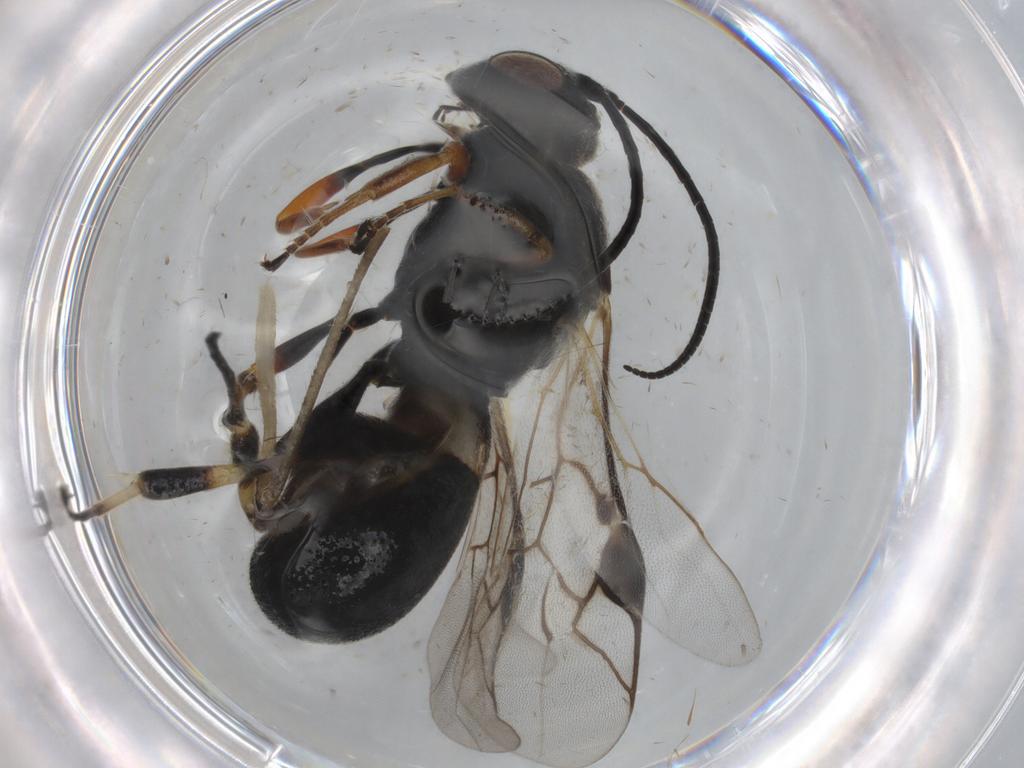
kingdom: Animalia
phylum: Arthropoda
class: Insecta
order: Hymenoptera
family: Braconidae
